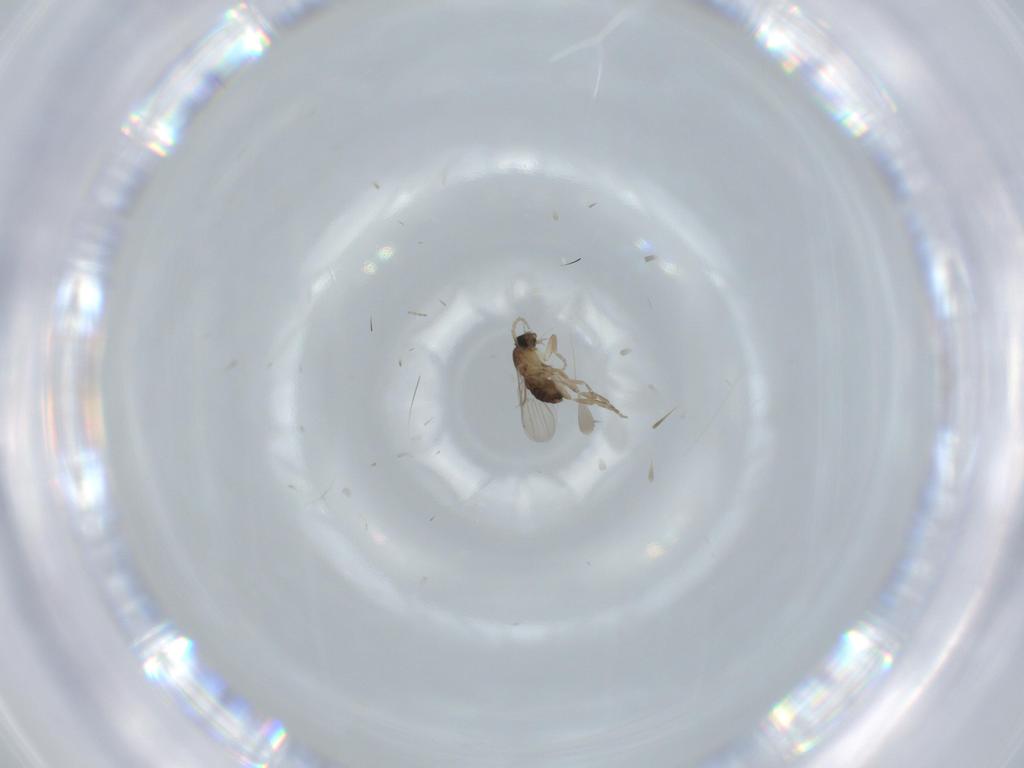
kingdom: Animalia
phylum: Arthropoda
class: Insecta
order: Diptera
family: Phoridae
